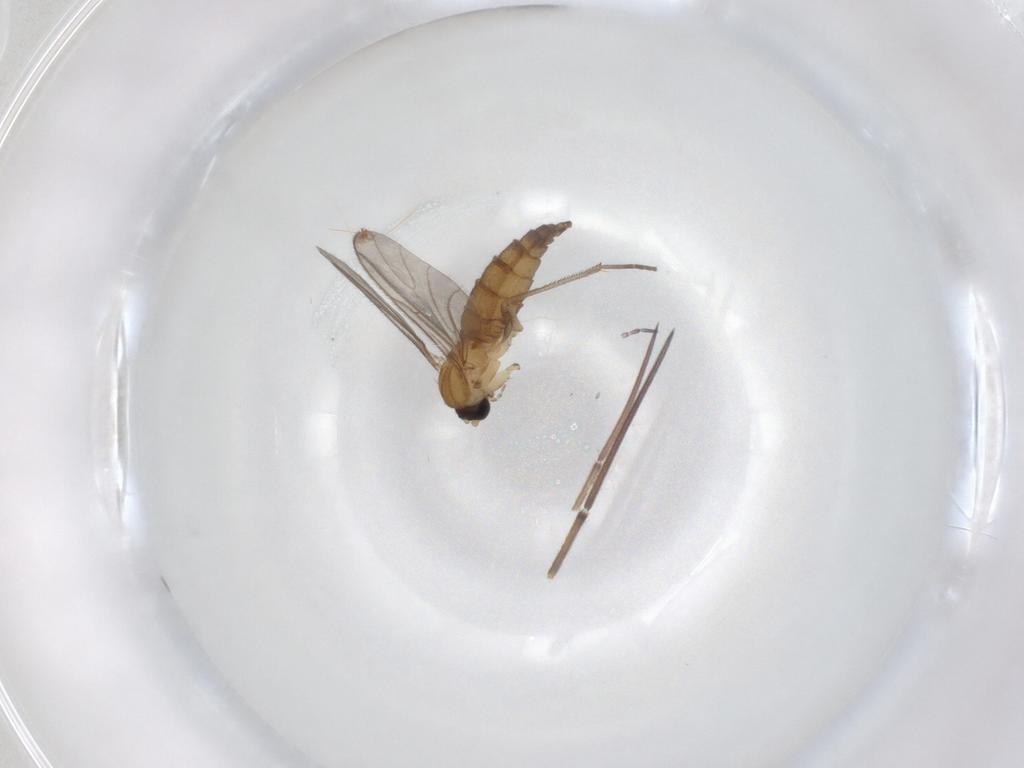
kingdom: Animalia
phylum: Arthropoda
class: Insecta
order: Diptera
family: Sciaridae
